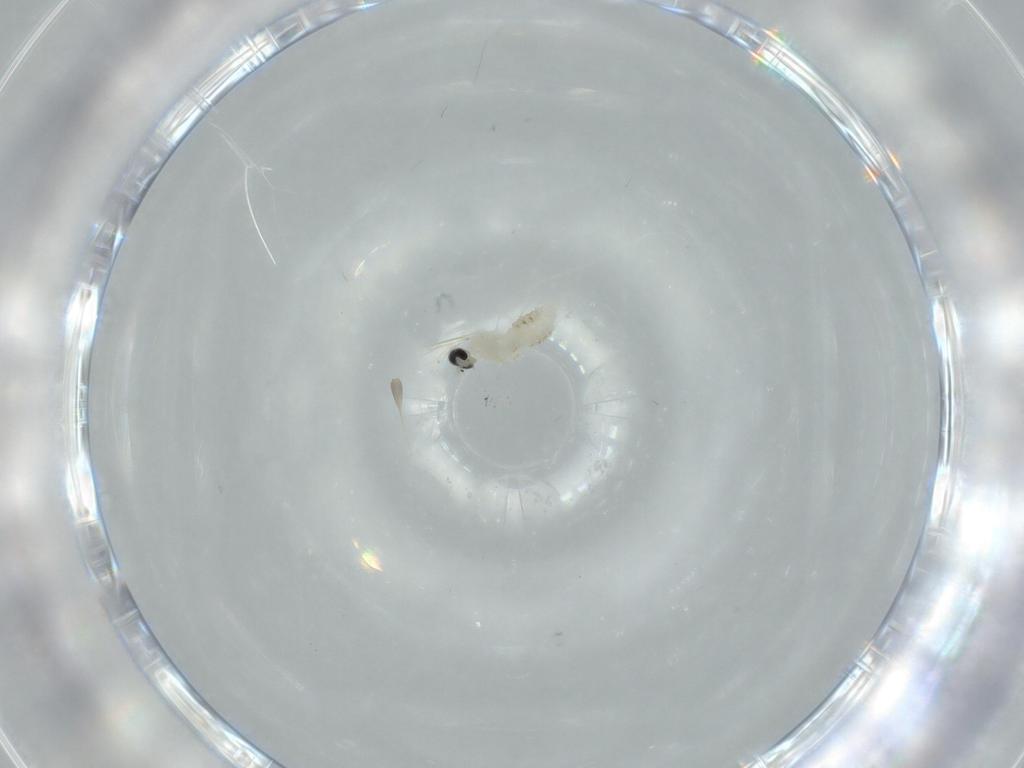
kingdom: Animalia
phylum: Arthropoda
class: Insecta
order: Diptera
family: Cecidomyiidae
